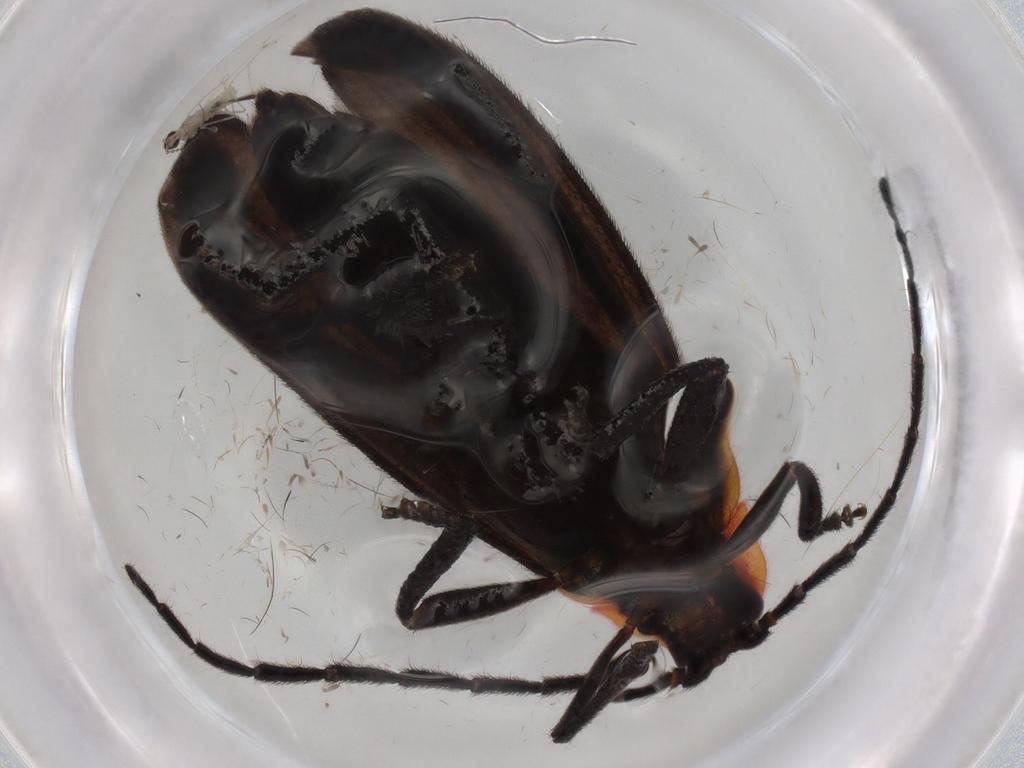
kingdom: Animalia
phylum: Arthropoda
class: Insecta
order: Coleoptera
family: Lycidae
